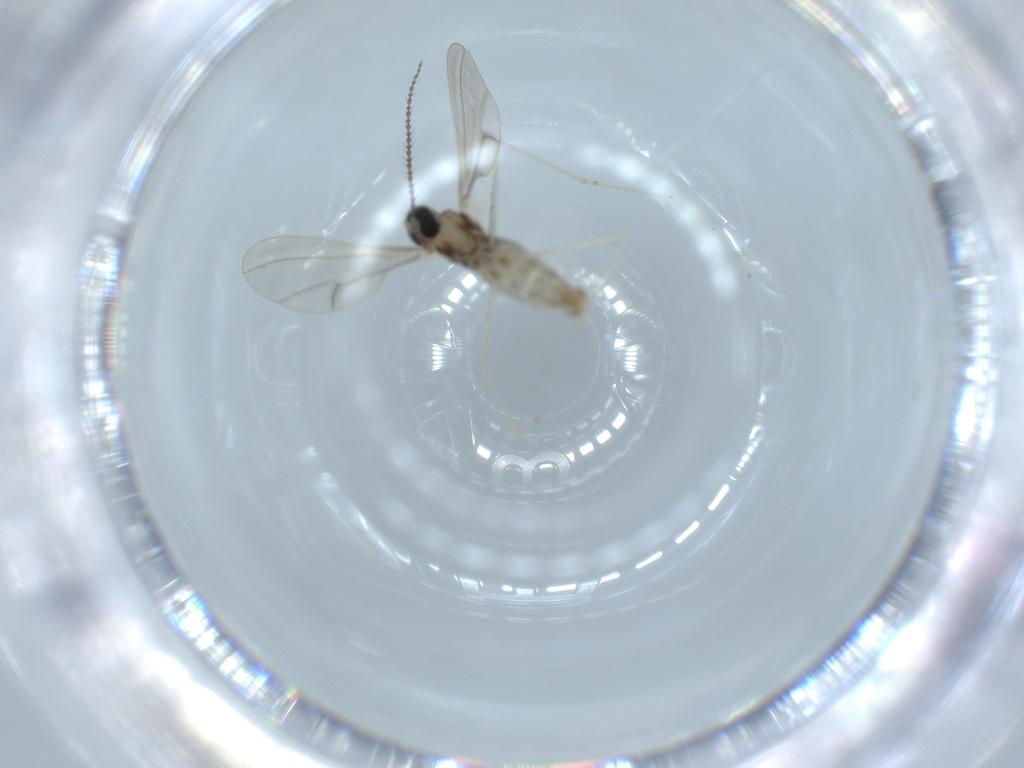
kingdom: Animalia
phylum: Arthropoda
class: Insecta
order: Diptera
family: Cecidomyiidae
